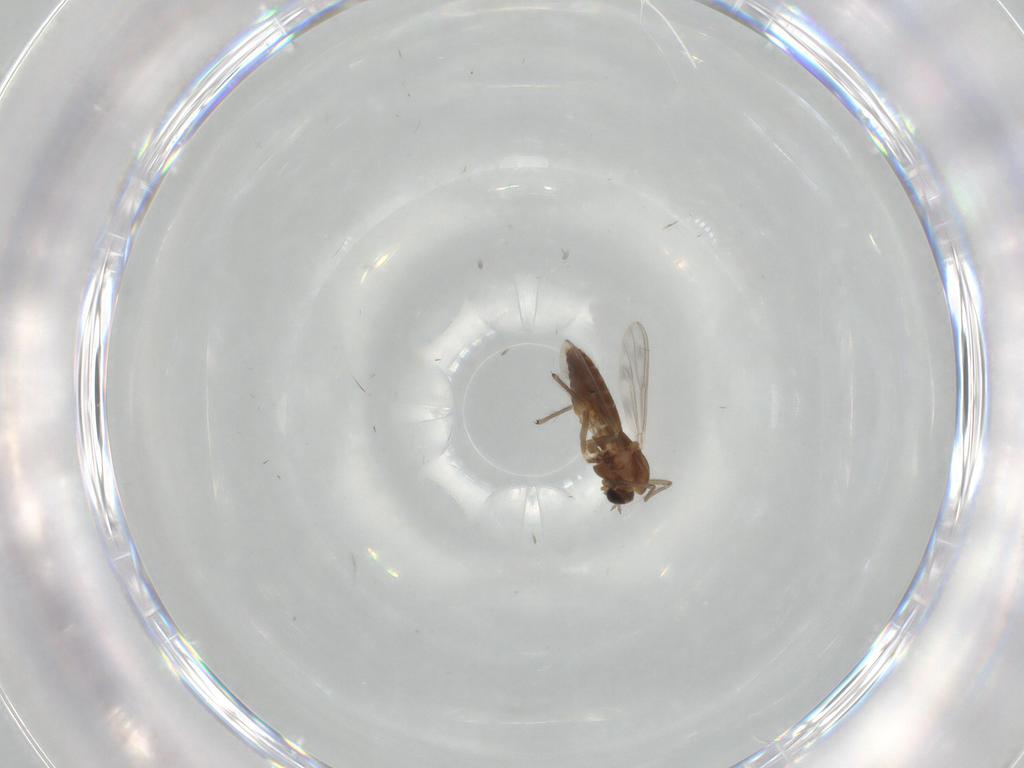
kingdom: Animalia
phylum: Arthropoda
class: Insecta
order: Diptera
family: Chironomidae
